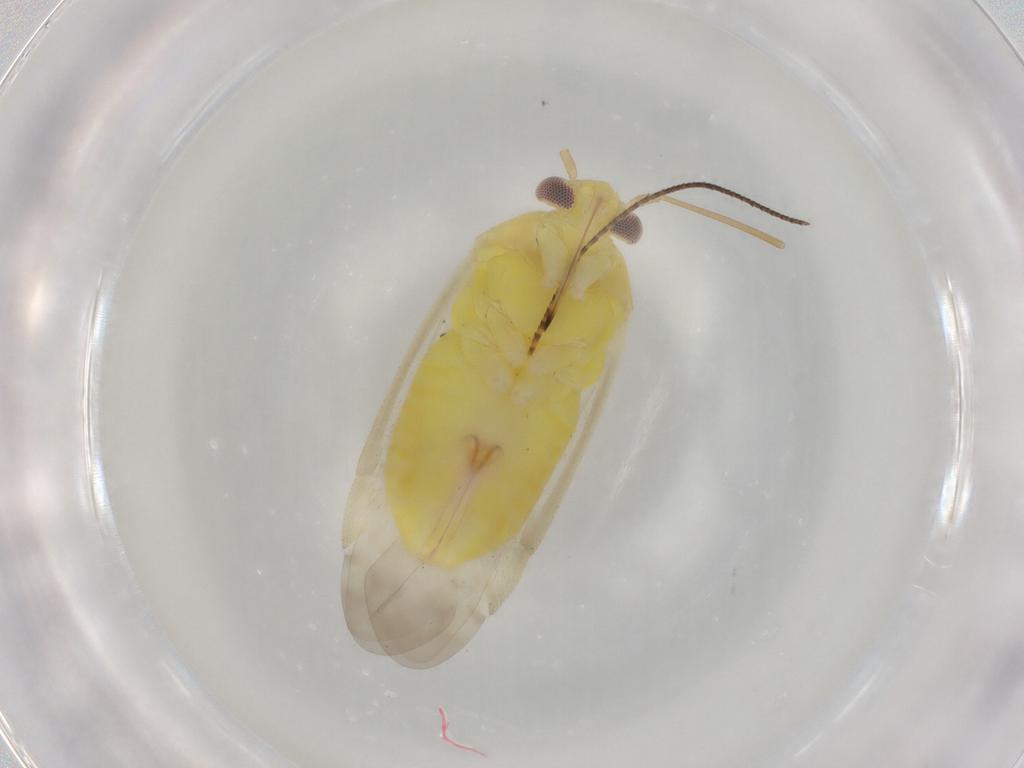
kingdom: Animalia
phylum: Arthropoda
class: Insecta
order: Hemiptera
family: Miridae
